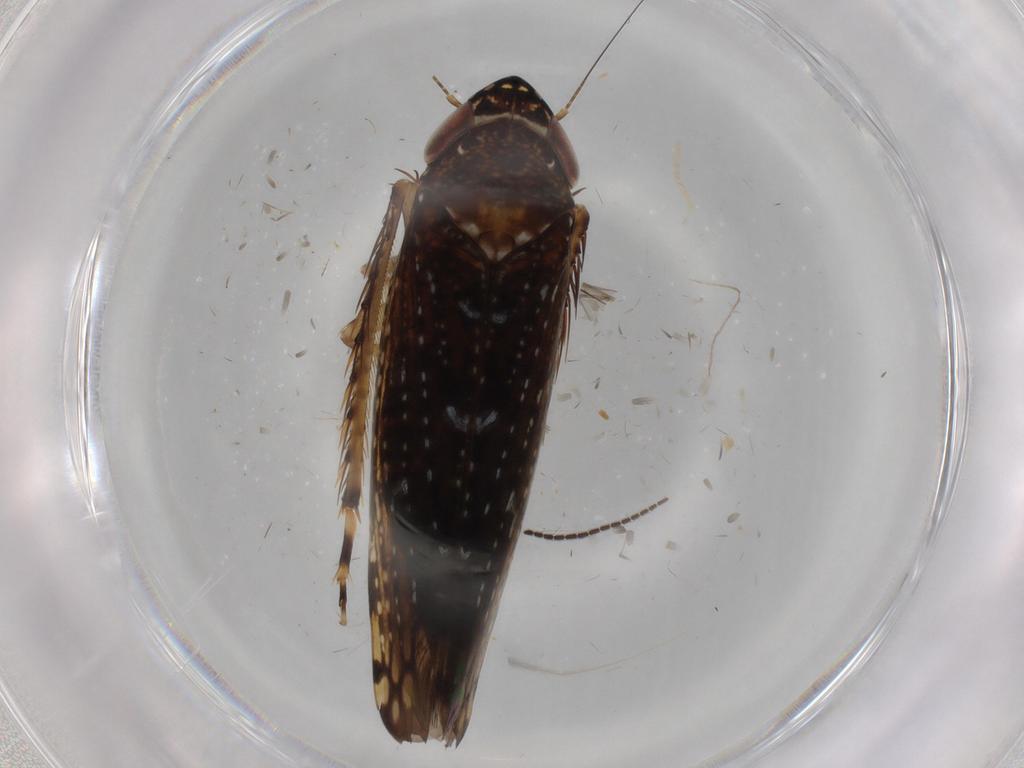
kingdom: Animalia
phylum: Arthropoda
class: Insecta
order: Hemiptera
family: Cicadellidae
